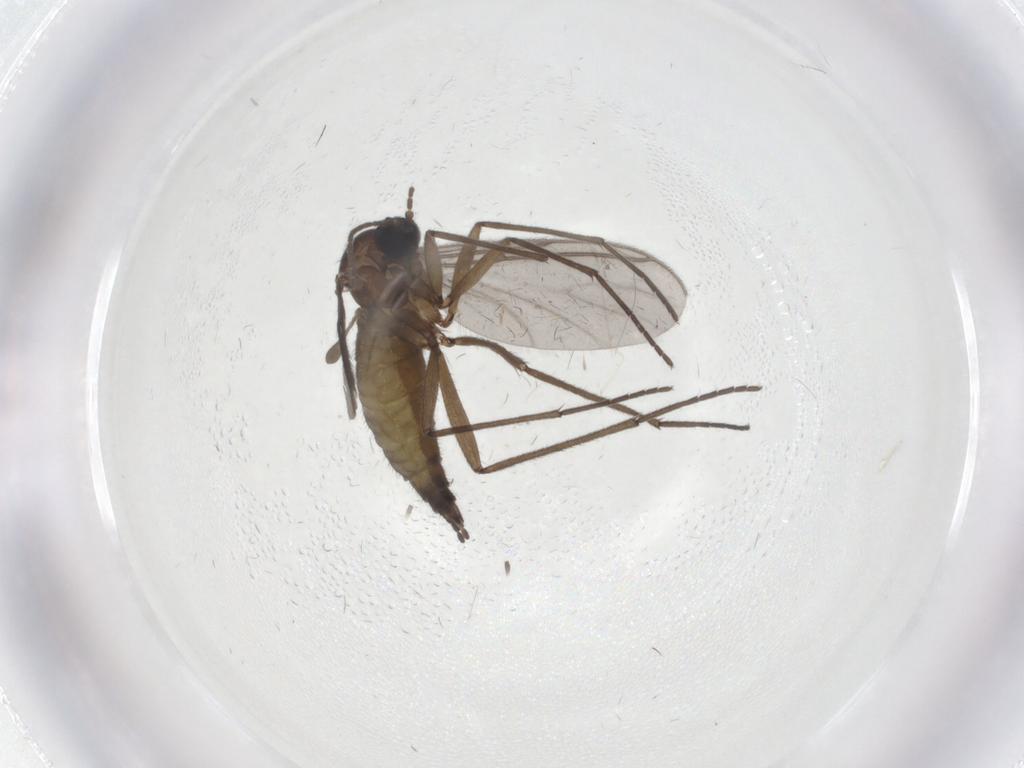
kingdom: Animalia
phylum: Arthropoda
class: Insecta
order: Diptera
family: Sciaridae
